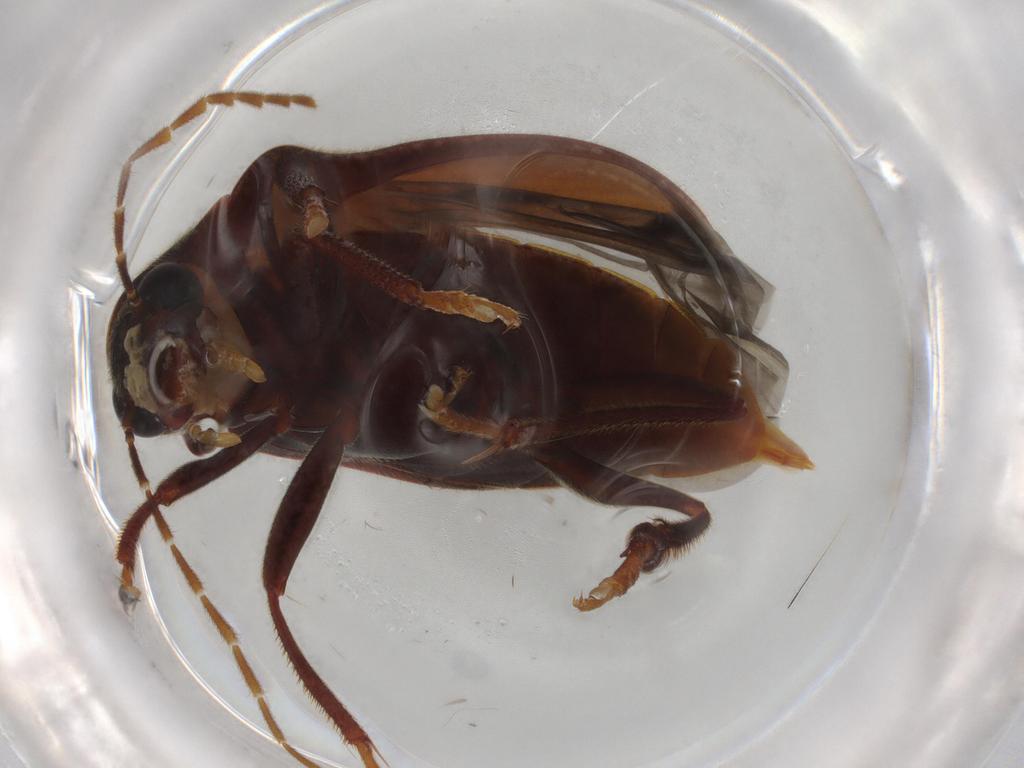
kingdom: Animalia
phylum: Arthropoda
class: Insecta
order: Coleoptera
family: Ptilodactylidae
